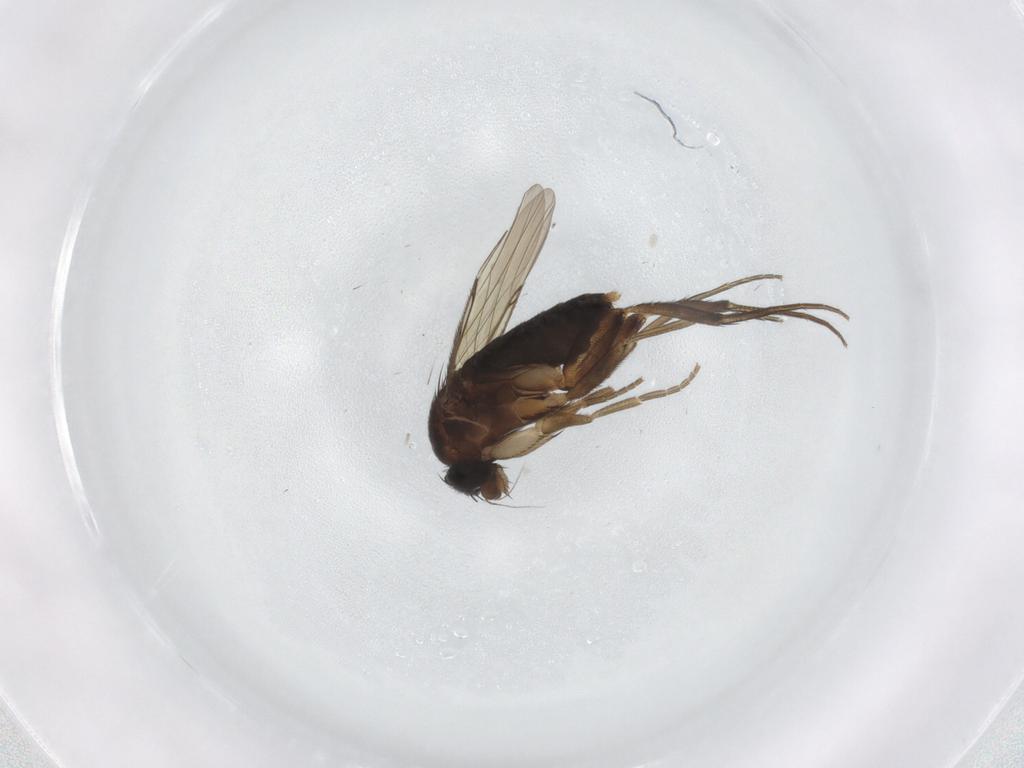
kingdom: Animalia
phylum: Arthropoda
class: Insecta
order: Diptera
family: Phoridae
